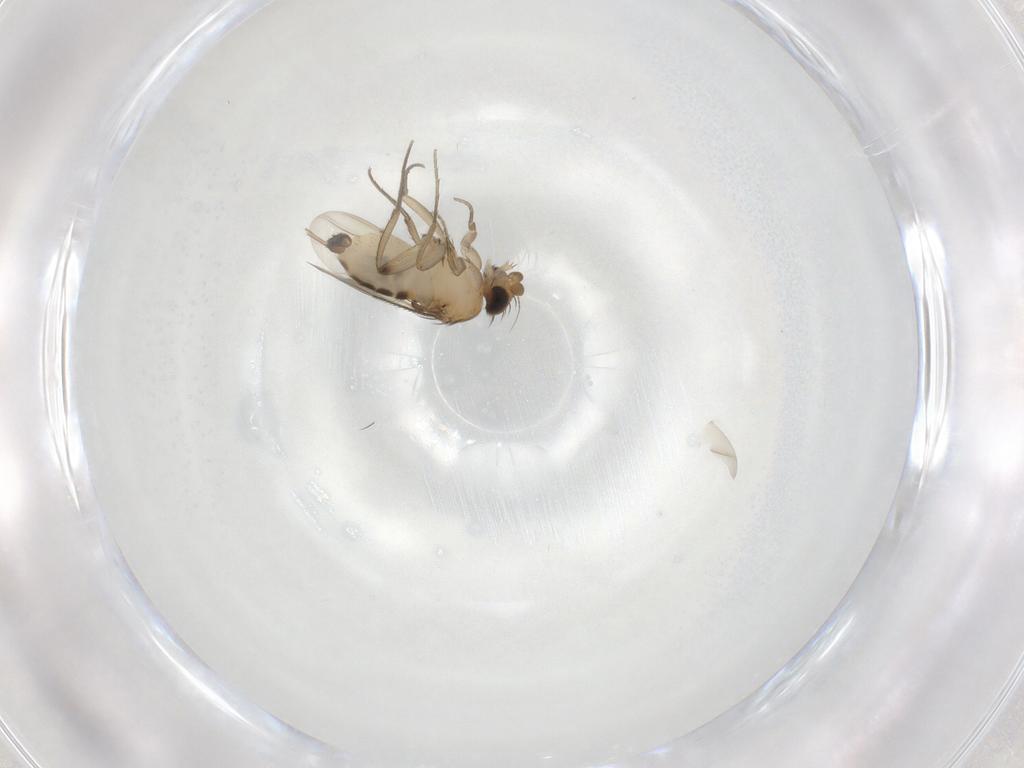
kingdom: Animalia
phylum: Arthropoda
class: Insecta
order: Diptera
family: Phoridae
